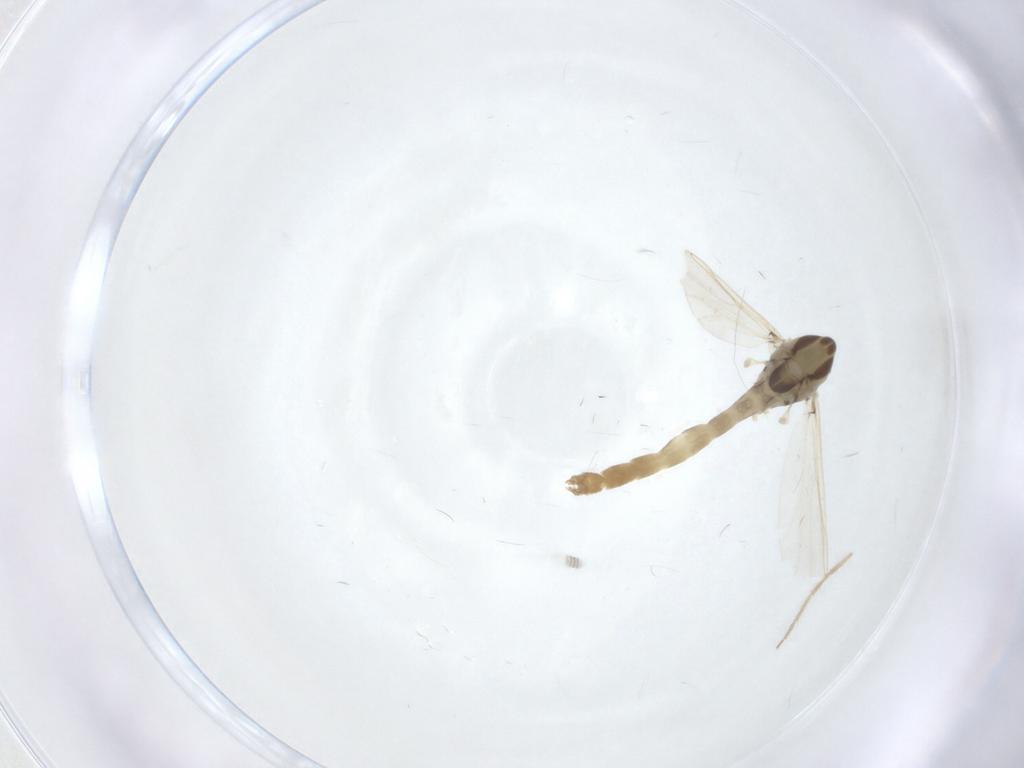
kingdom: Animalia
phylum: Arthropoda
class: Insecta
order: Diptera
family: Chironomidae
